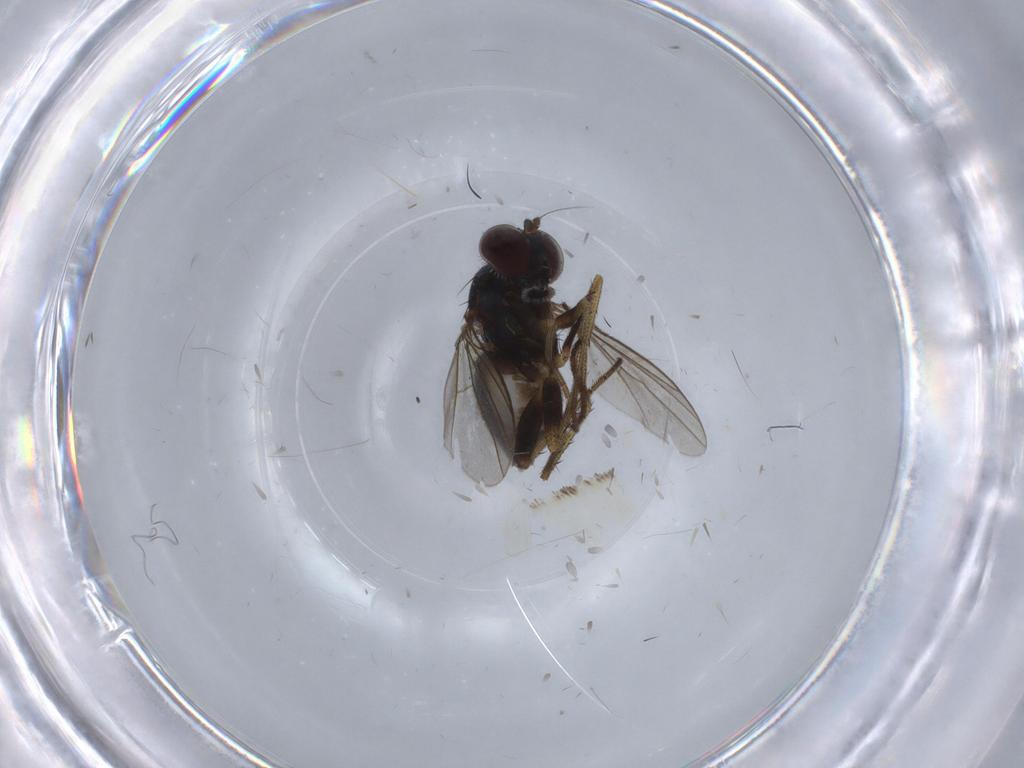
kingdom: Animalia
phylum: Arthropoda
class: Insecta
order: Diptera
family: Dolichopodidae
